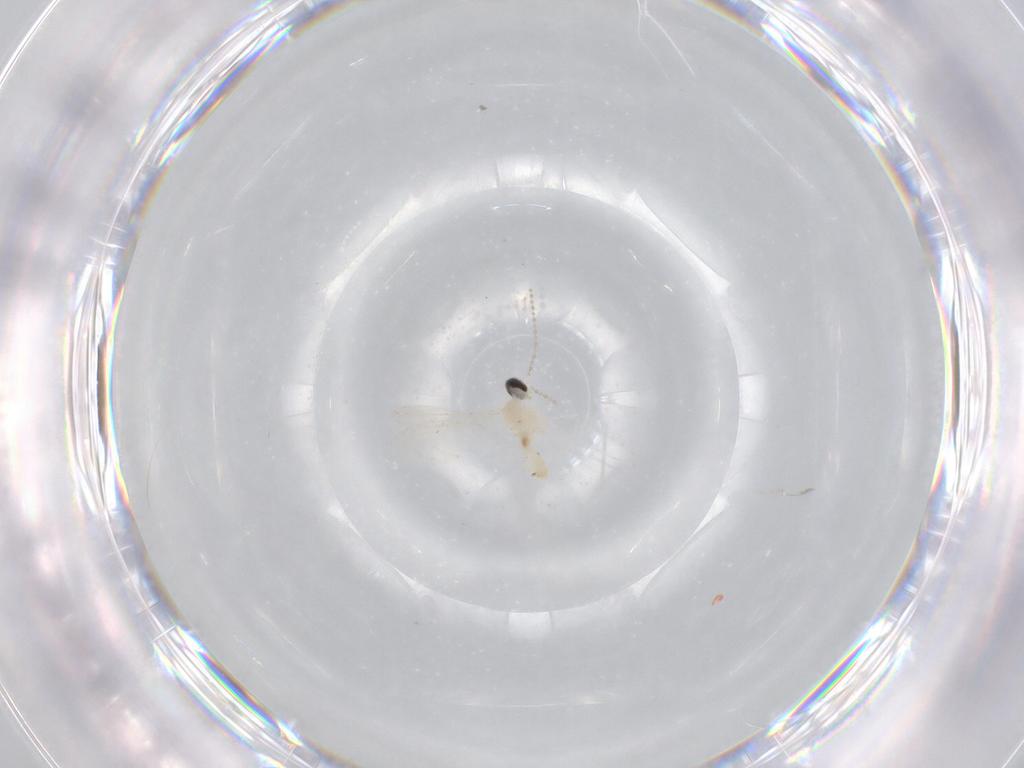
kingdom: Animalia
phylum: Arthropoda
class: Insecta
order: Diptera
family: Cecidomyiidae
